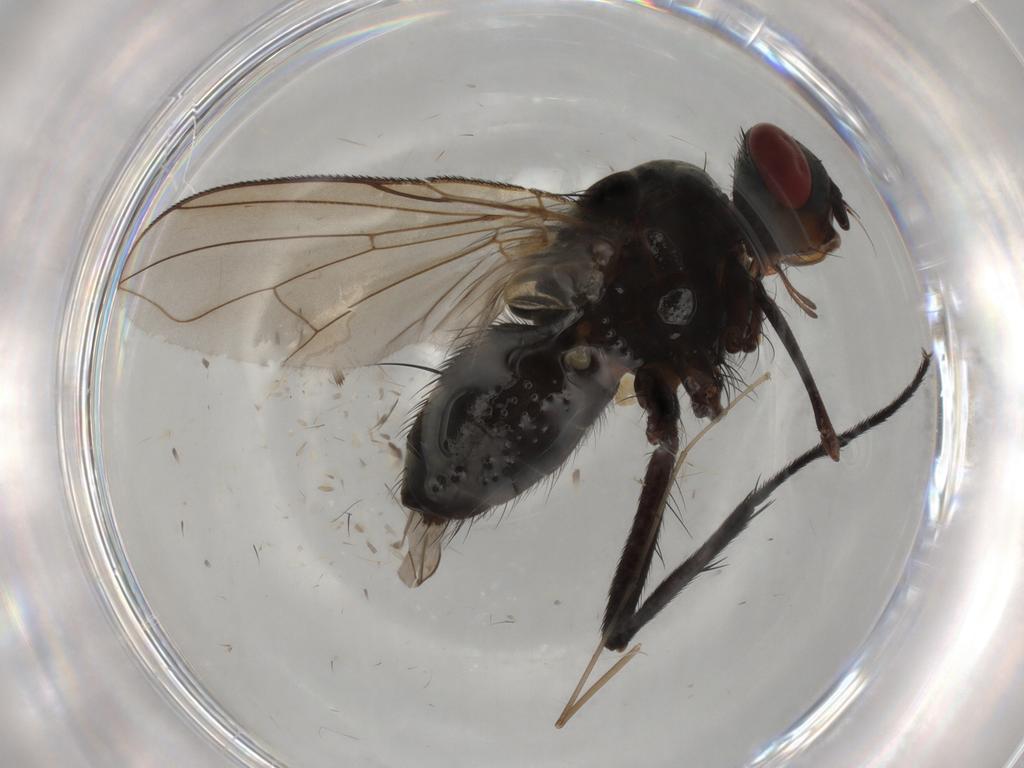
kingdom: Animalia
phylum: Arthropoda
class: Insecta
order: Diptera
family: Tachinidae
